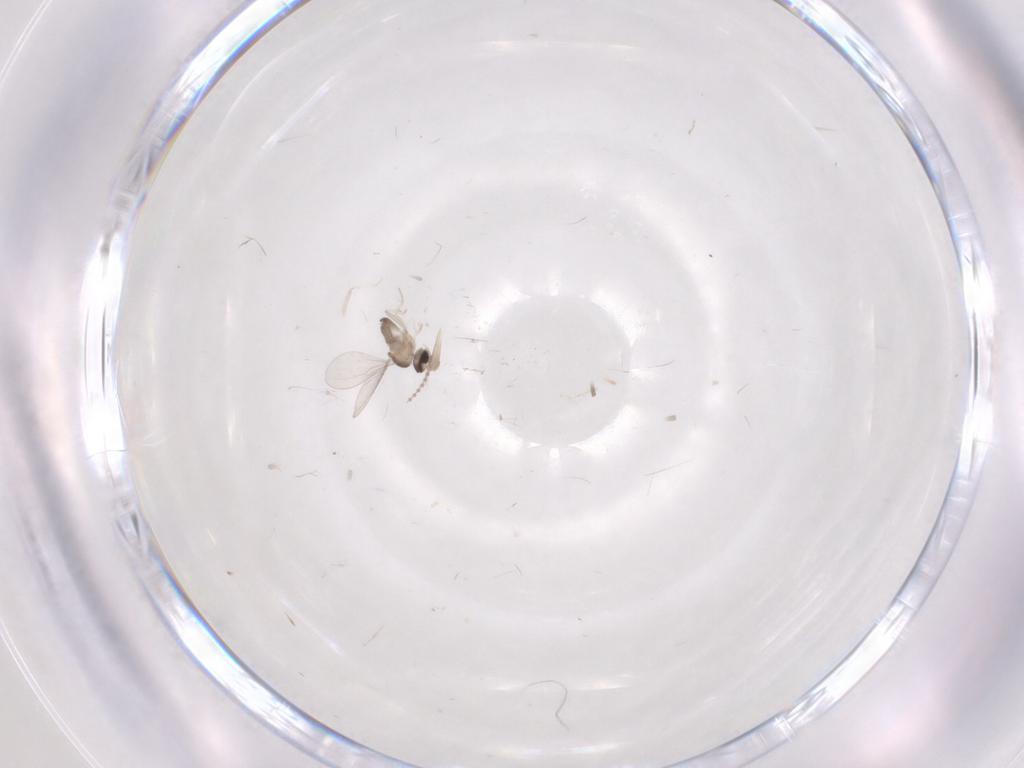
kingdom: Animalia
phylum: Arthropoda
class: Insecta
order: Diptera
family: Cecidomyiidae
